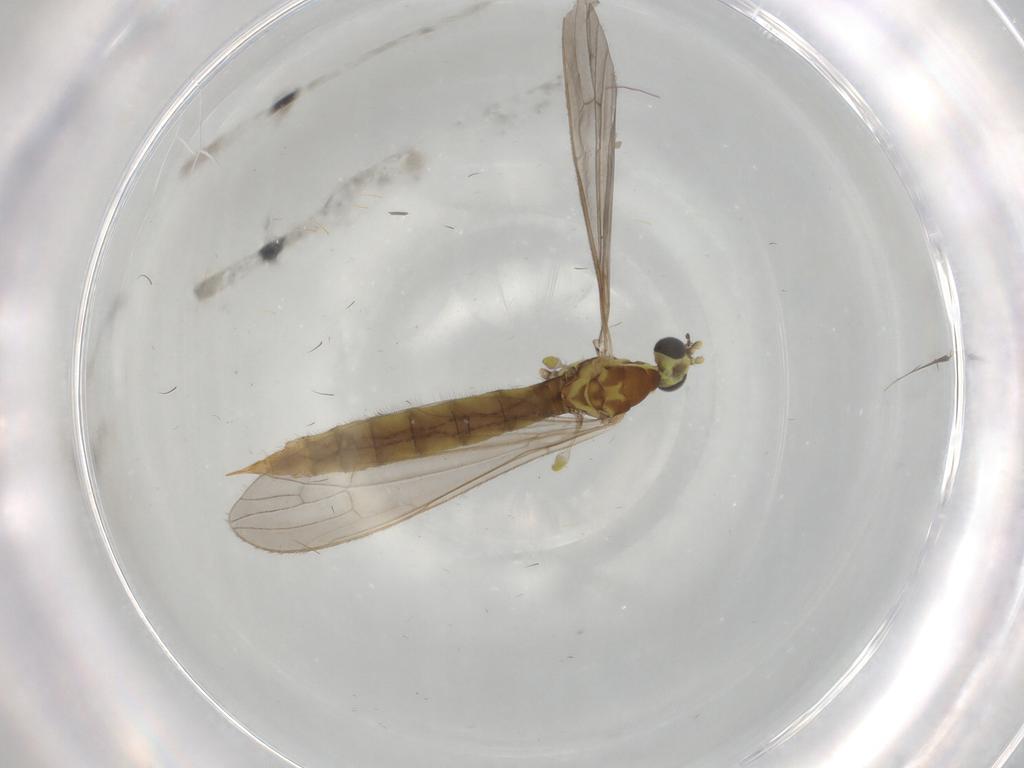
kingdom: Animalia
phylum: Arthropoda
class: Insecta
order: Diptera
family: Limoniidae
